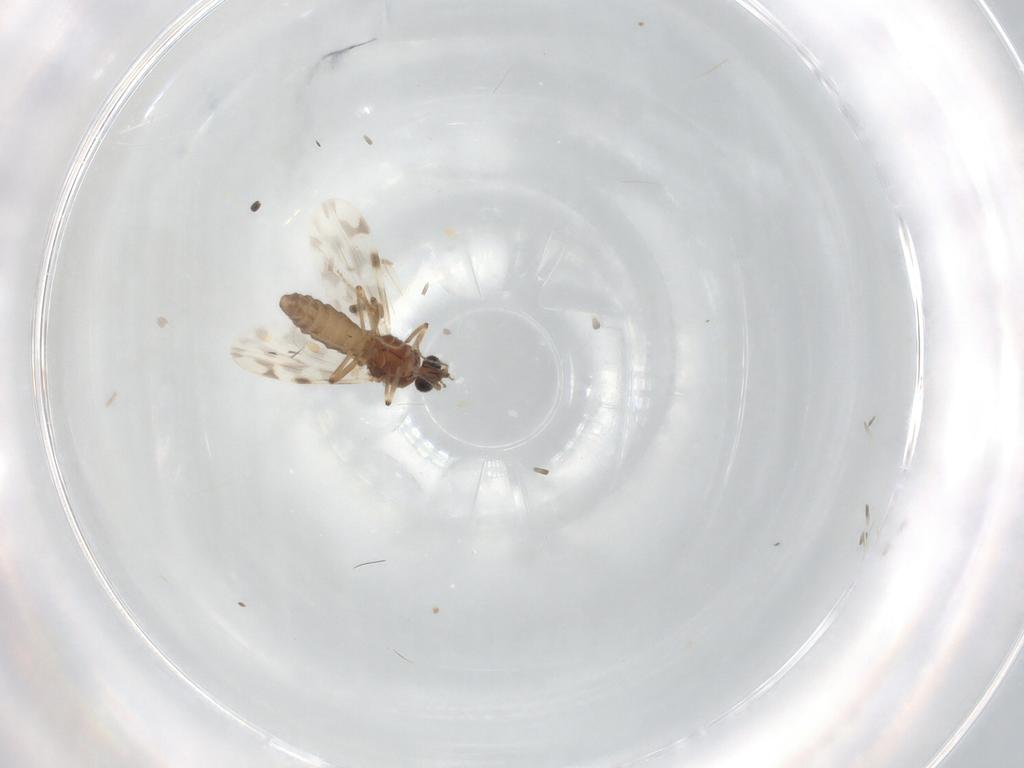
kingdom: Animalia
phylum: Arthropoda
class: Insecta
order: Diptera
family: Ceratopogonidae
